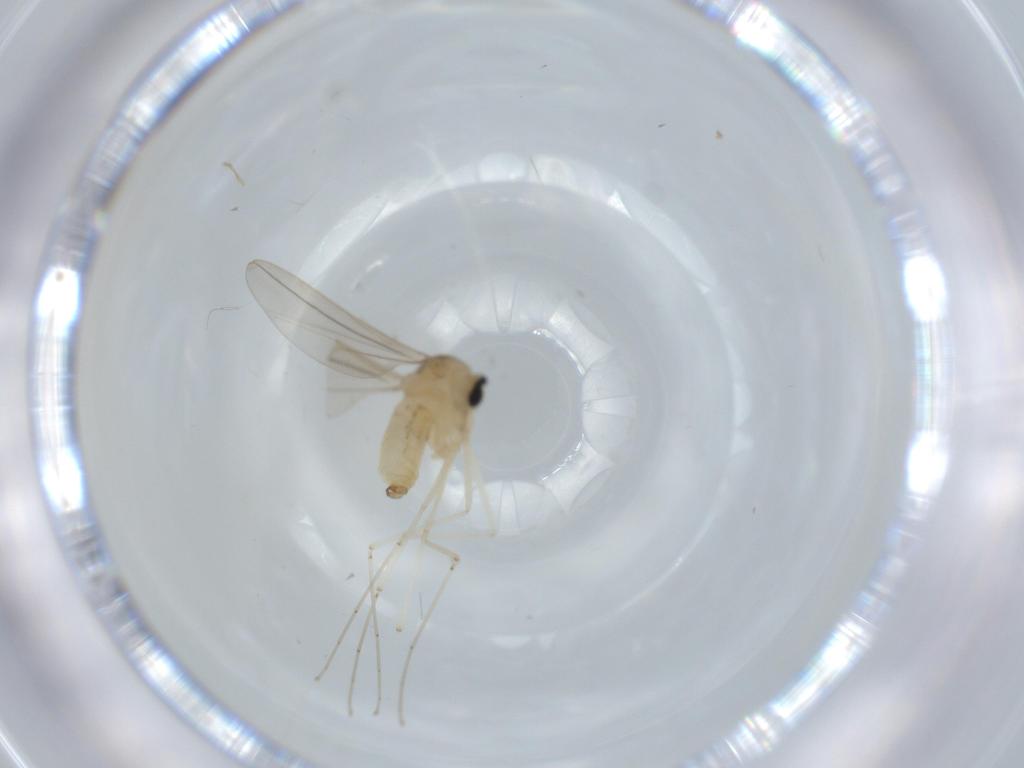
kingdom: Animalia
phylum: Arthropoda
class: Insecta
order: Diptera
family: Cecidomyiidae
